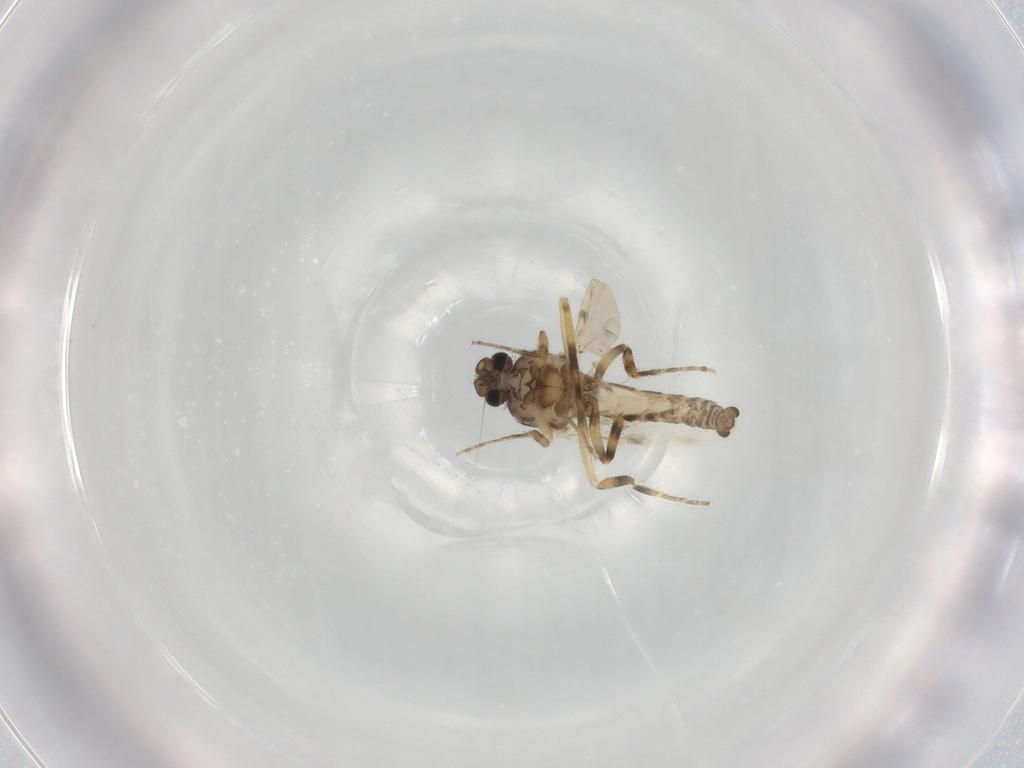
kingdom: Animalia
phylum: Arthropoda
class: Insecta
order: Diptera
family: Ceratopogonidae
